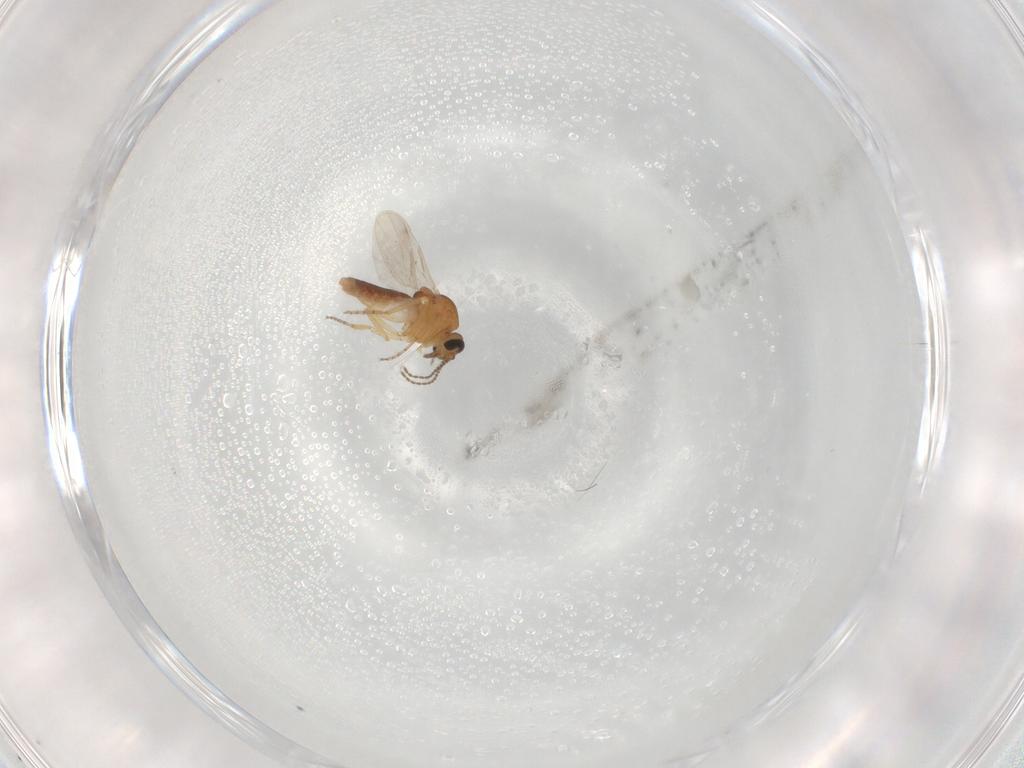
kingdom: Animalia
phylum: Arthropoda
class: Insecta
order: Diptera
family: Ceratopogonidae
